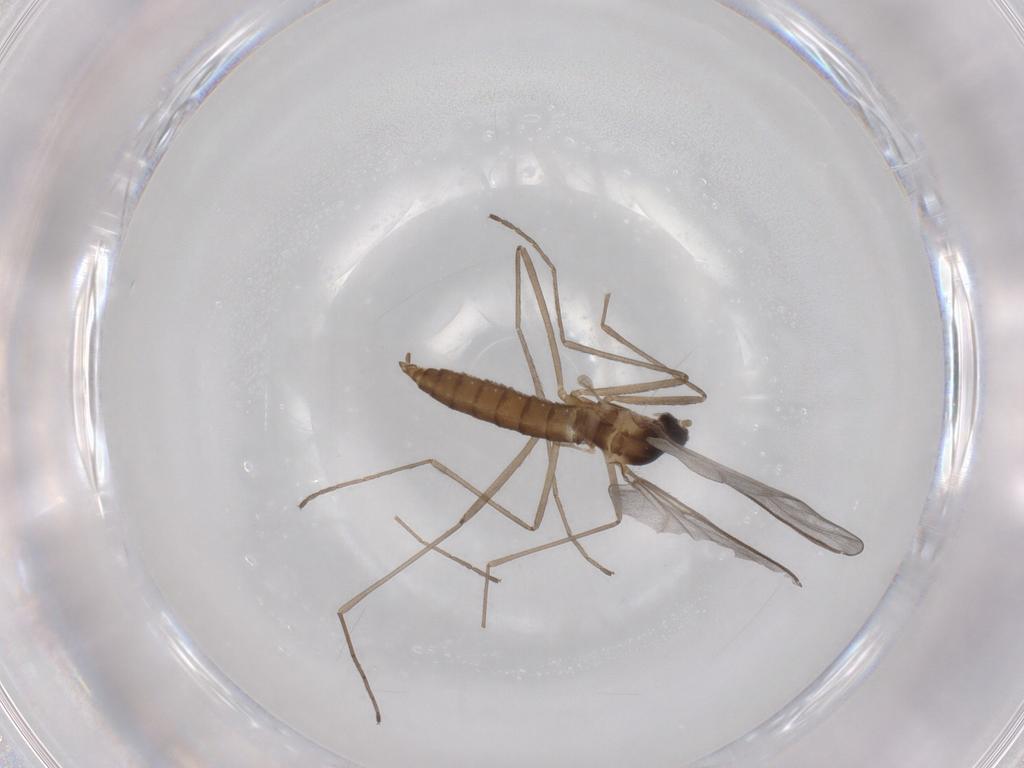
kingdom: Animalia
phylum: Arthropoda
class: Insecta
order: Diptera
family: Cecidomyiidae
